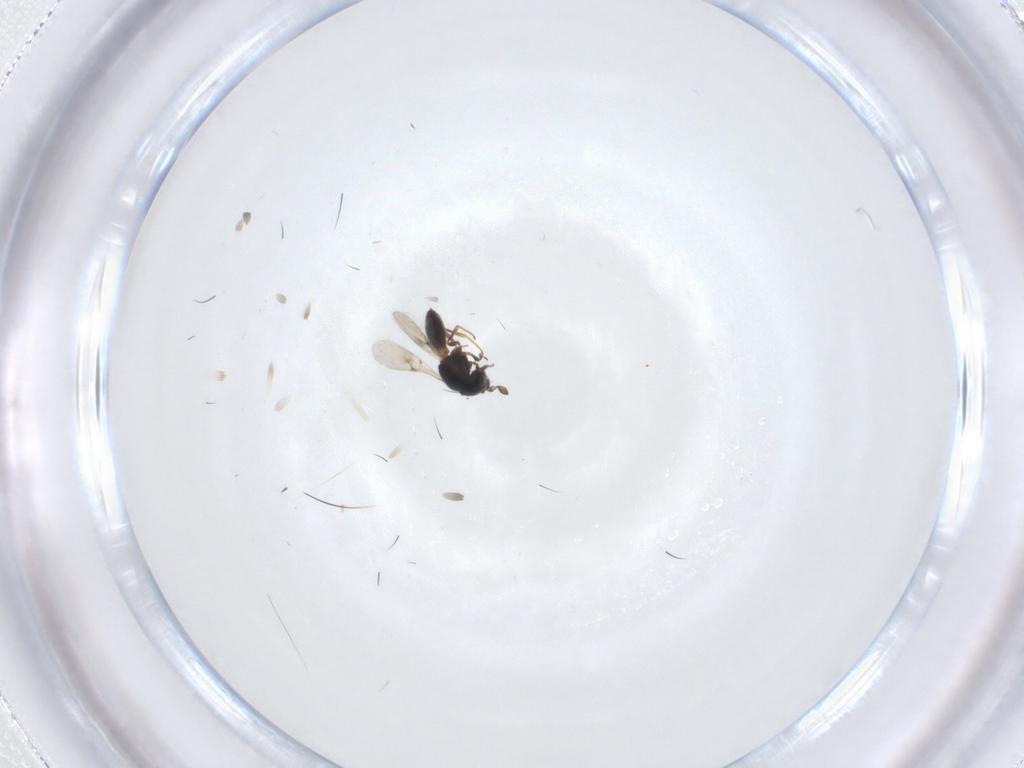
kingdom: Animalia
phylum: Arthropoda
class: Insecta
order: Hymenoptera
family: Scelionidae
